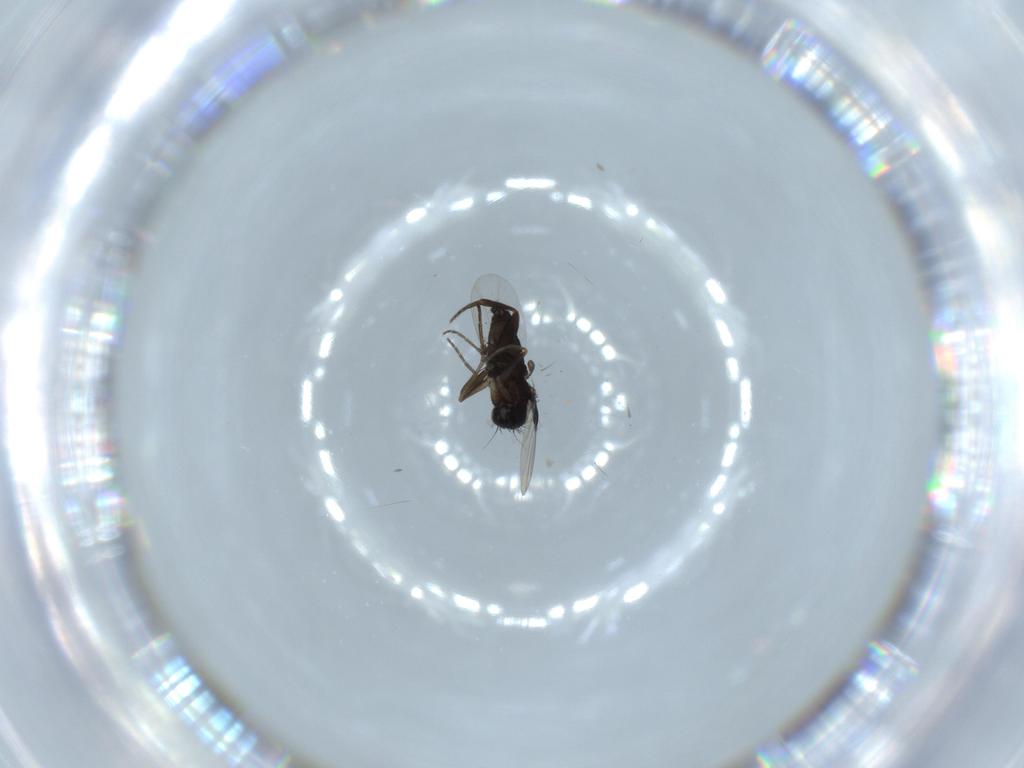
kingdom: Animalia
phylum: Arthropoda
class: Insecta
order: Diptera
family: Phoridae
